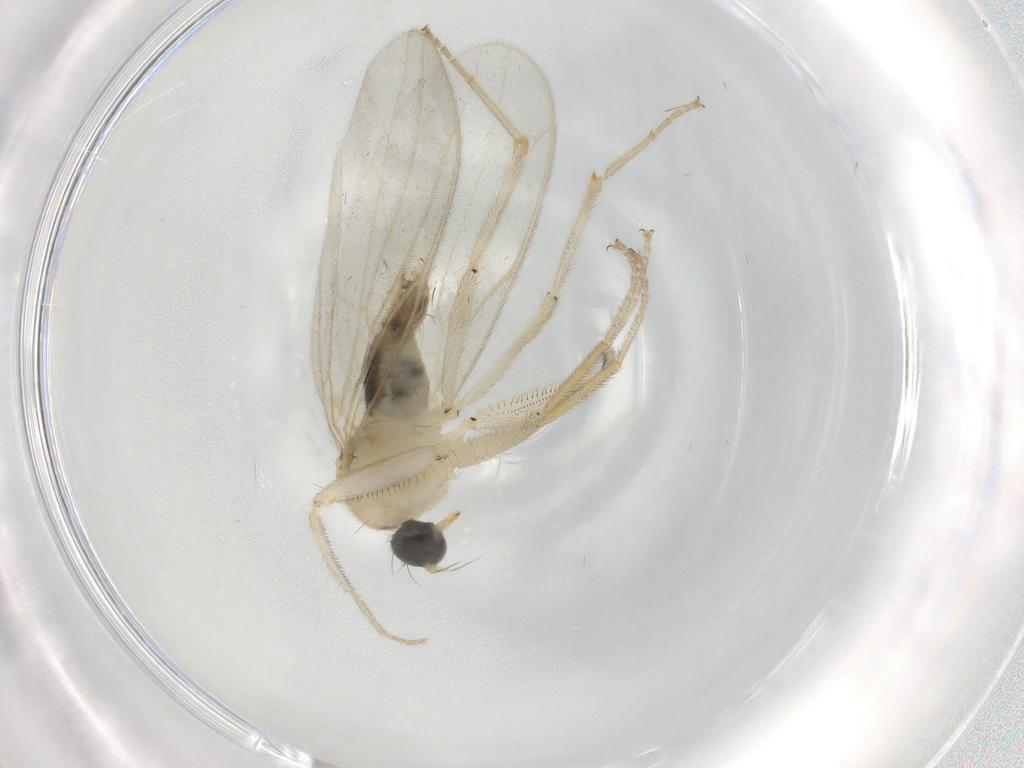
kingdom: Animalia
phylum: Arthropoda
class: Insecta
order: Diptera
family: Hybotidae
